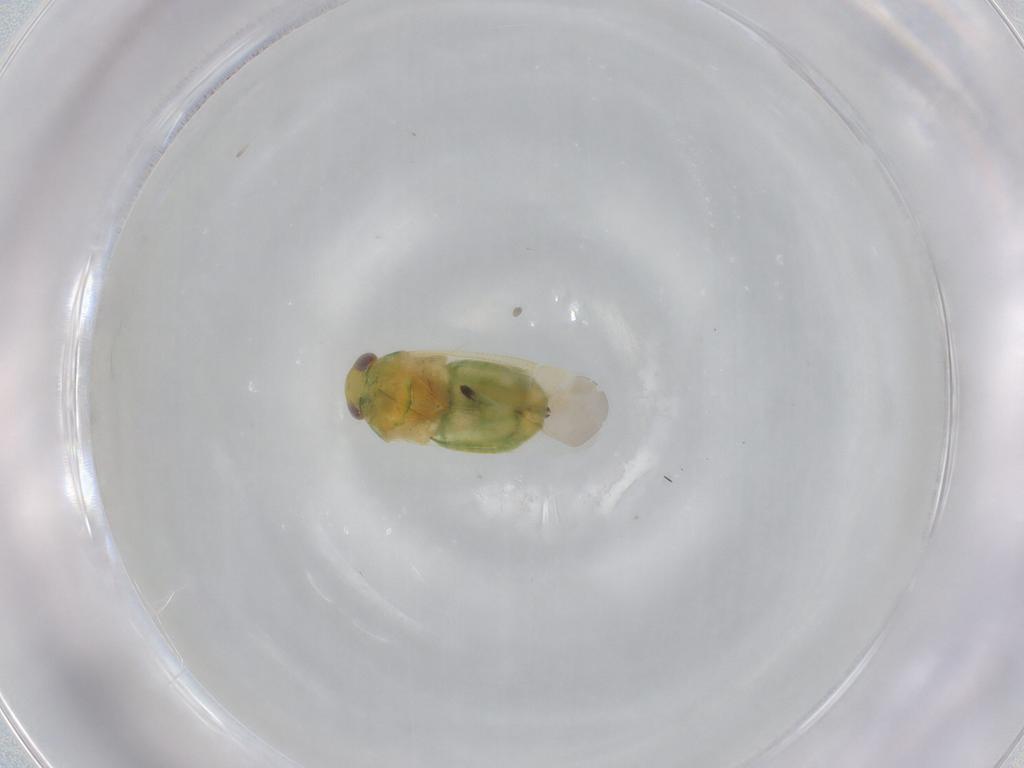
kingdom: Animalia
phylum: Arthropoda
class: Insecta
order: Hemiptera
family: Miridae
